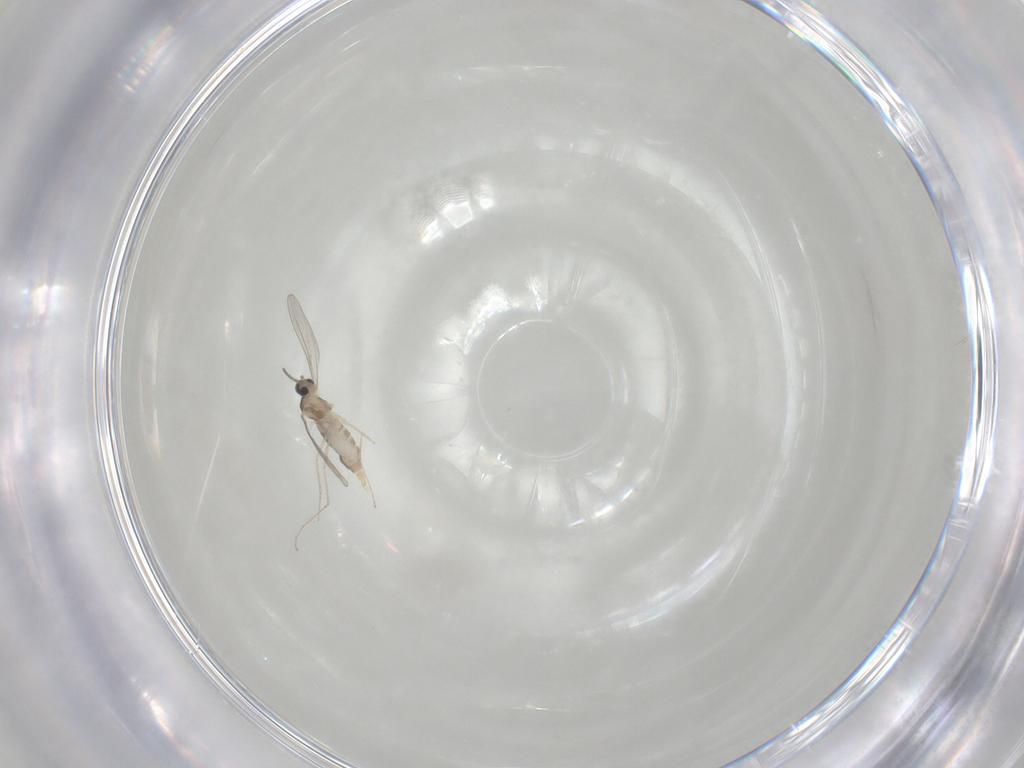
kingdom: Animalia
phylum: Arthropoda
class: Insecta
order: Diptera
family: Cecidomyiidae
